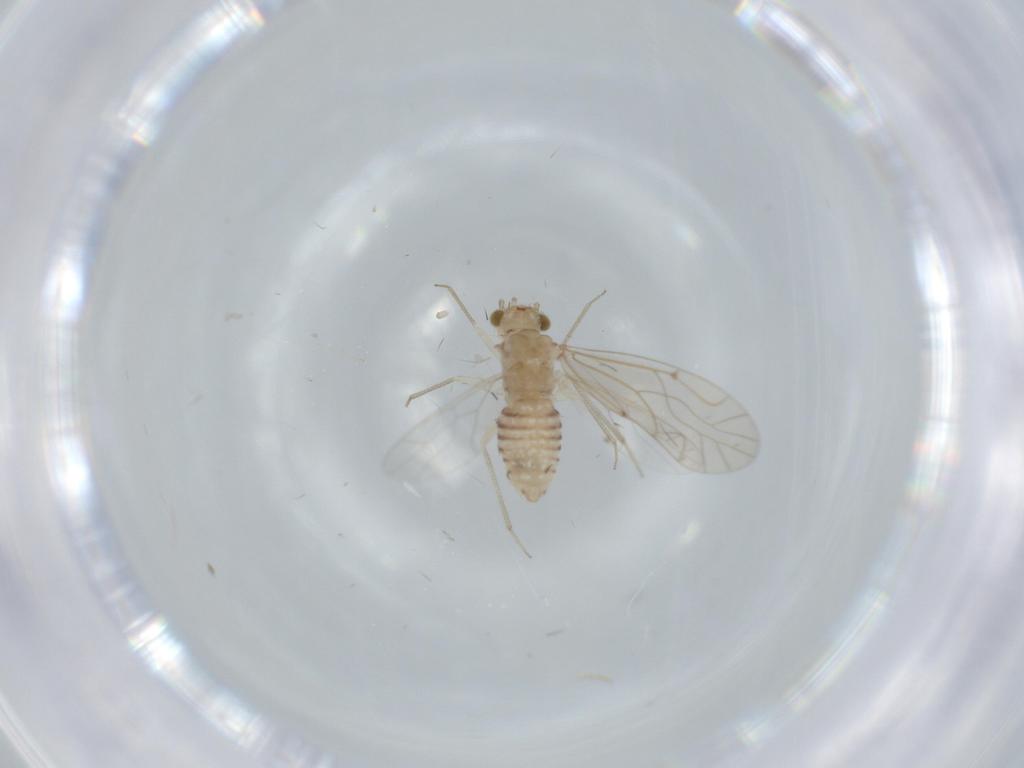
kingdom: Animalia
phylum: Arthropoda
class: Insecta
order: Psocodea
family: Lachesillidae
